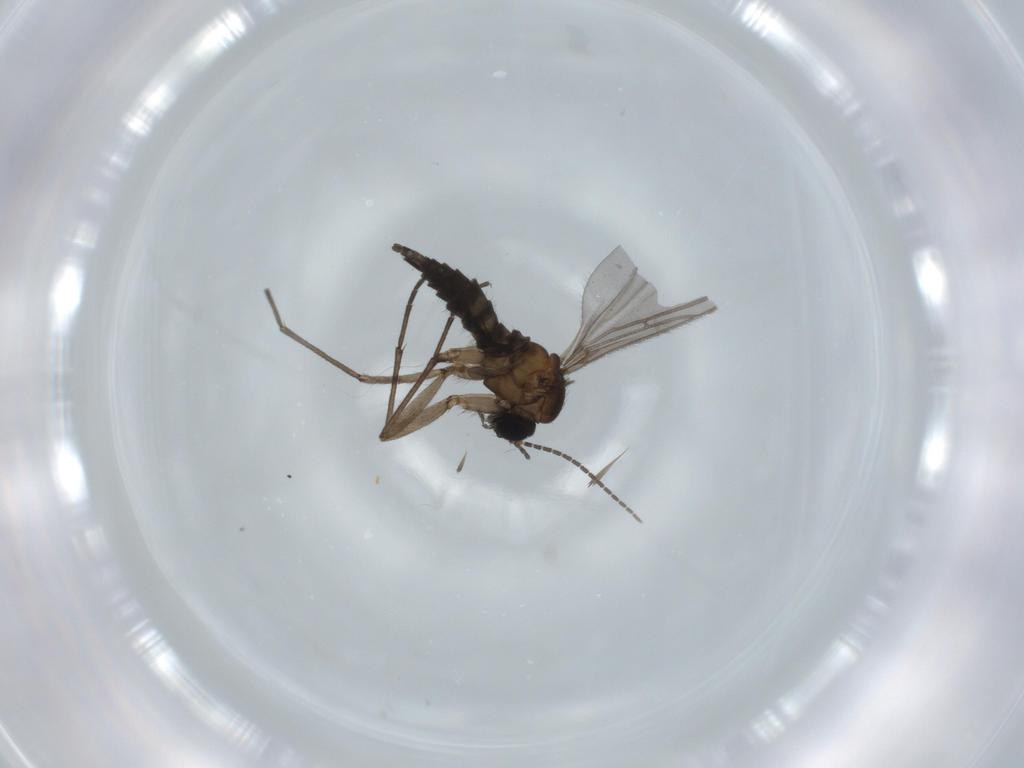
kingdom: Animalia
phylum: Arthropoda
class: Insecta
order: Diptera
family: Sciaridae
